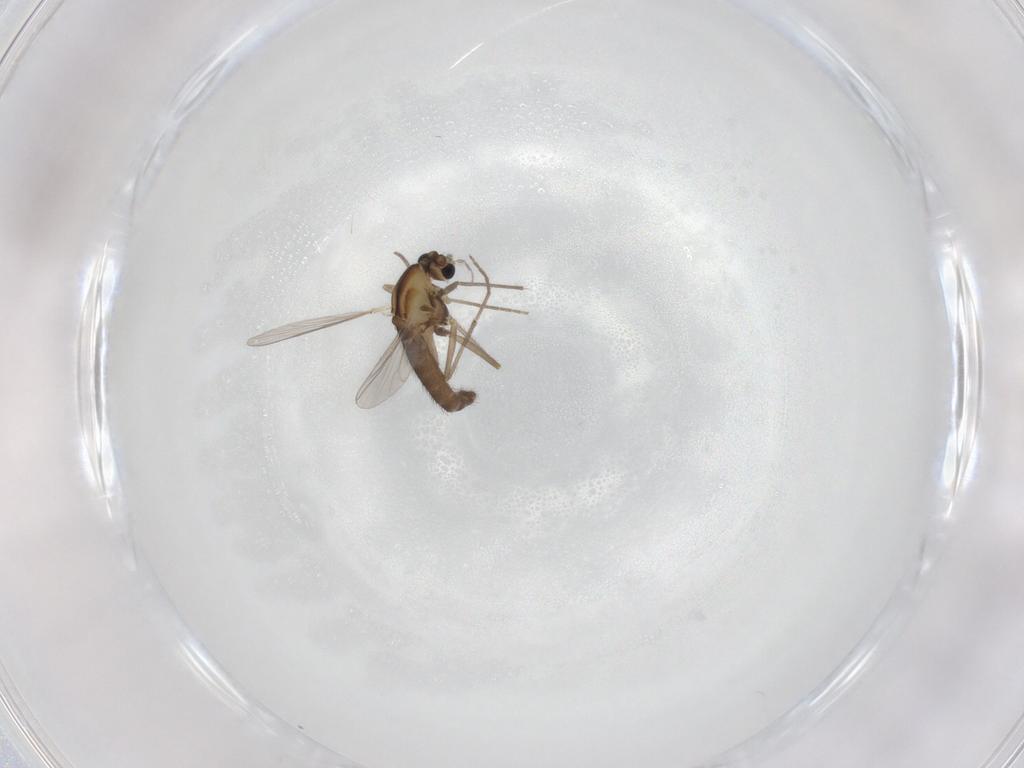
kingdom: Animalia
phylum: Arthropoda
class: Insecta
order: Diptera
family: Chironomidae
